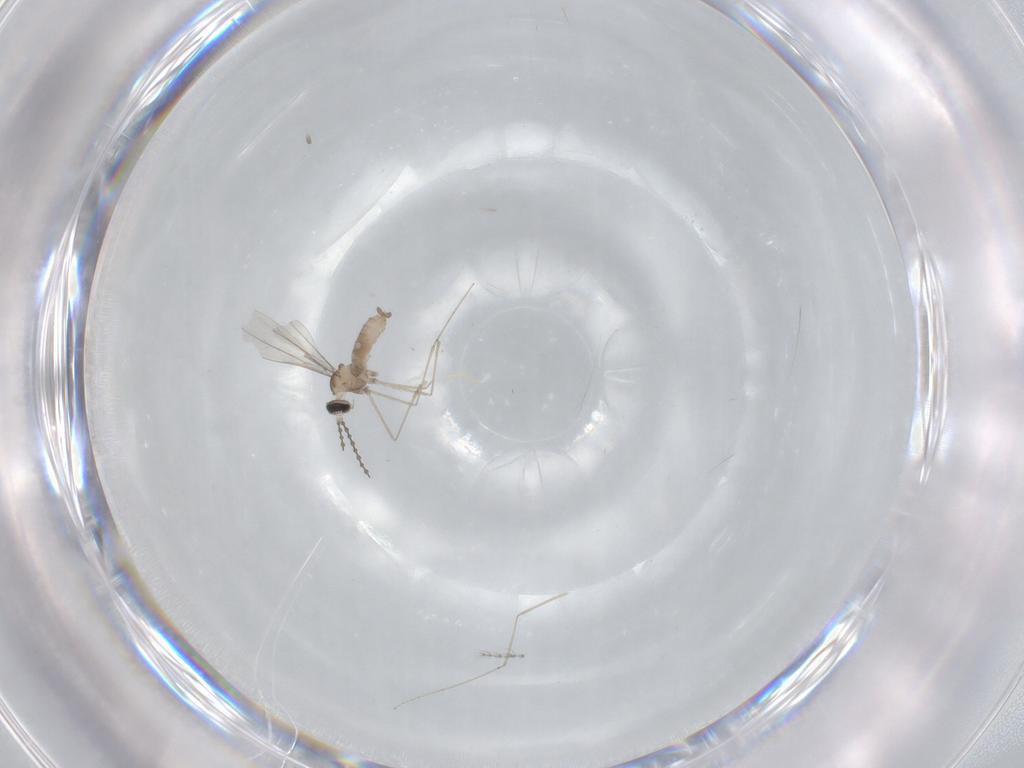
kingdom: Animalia
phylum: Arthropoda
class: Insecta
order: Diptera
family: Cecidomyiidae
